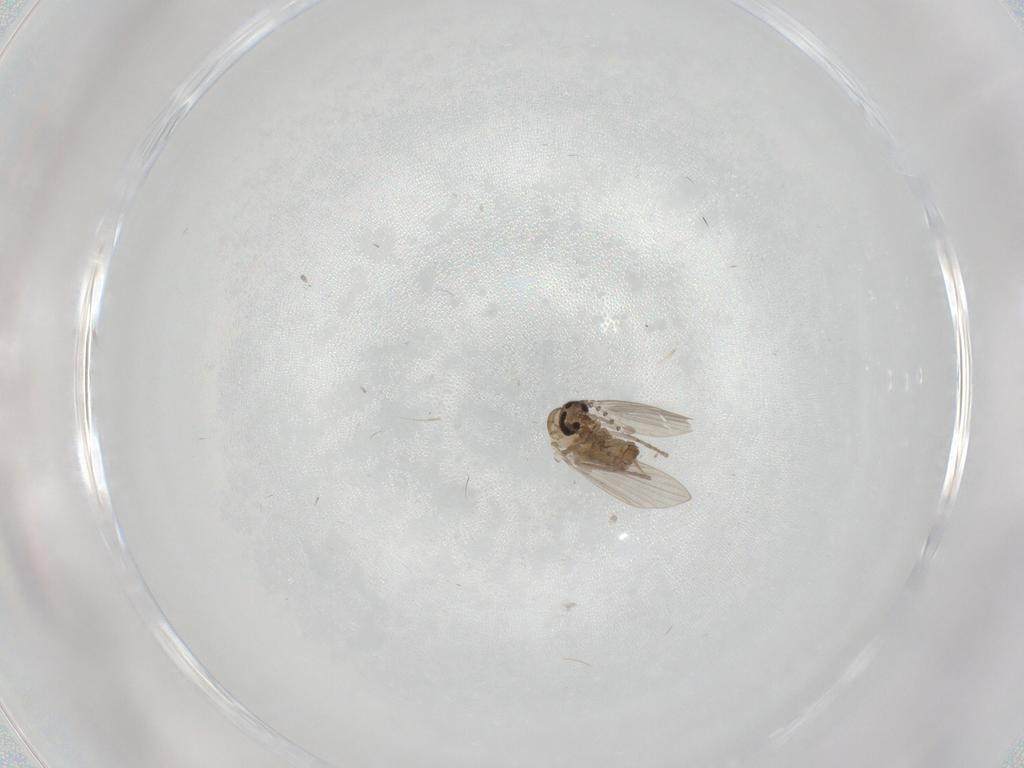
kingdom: Animalia
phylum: Arthropoda
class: Insecta
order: Diptera
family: Psychodidae
